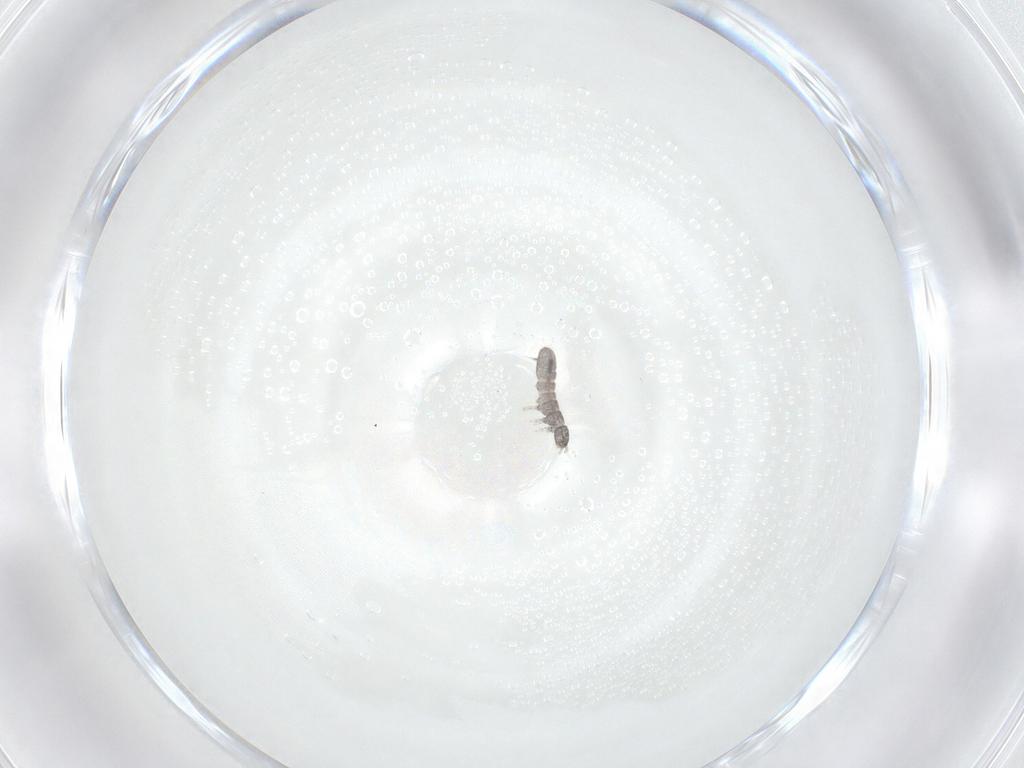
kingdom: Animalia
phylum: Arthropoda
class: Collembola
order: Entomobryomorpha
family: Isotomidae
